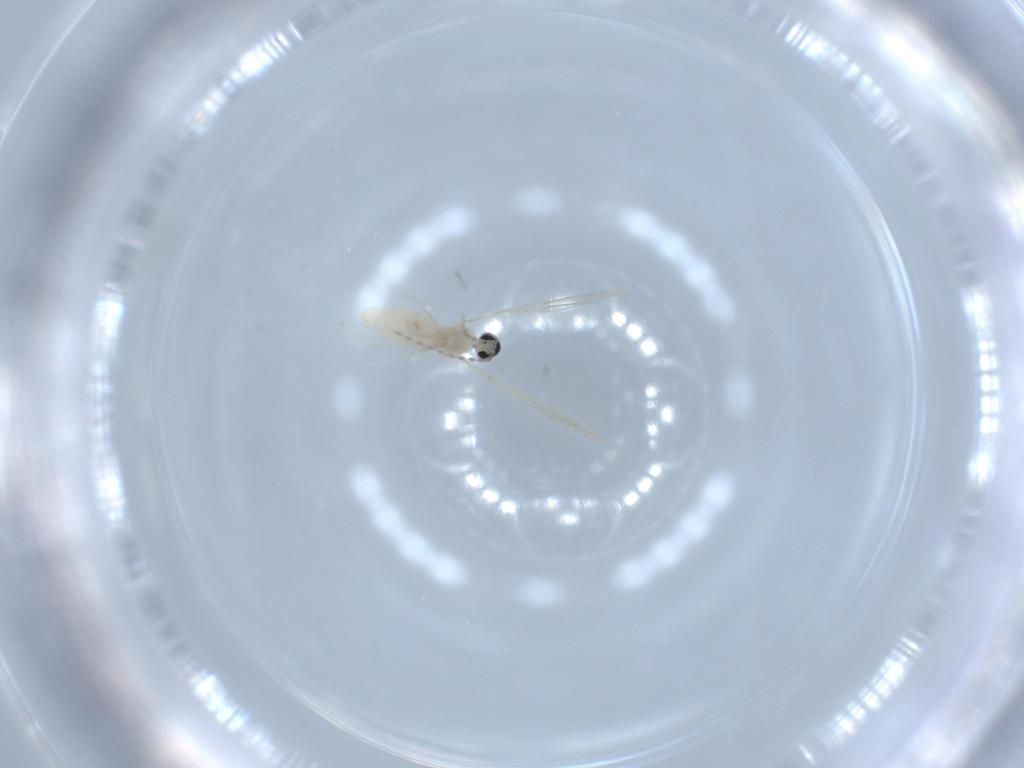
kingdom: Animalia
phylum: Arthropoda
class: Insecta
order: Diptera
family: Cecidomyiidae
